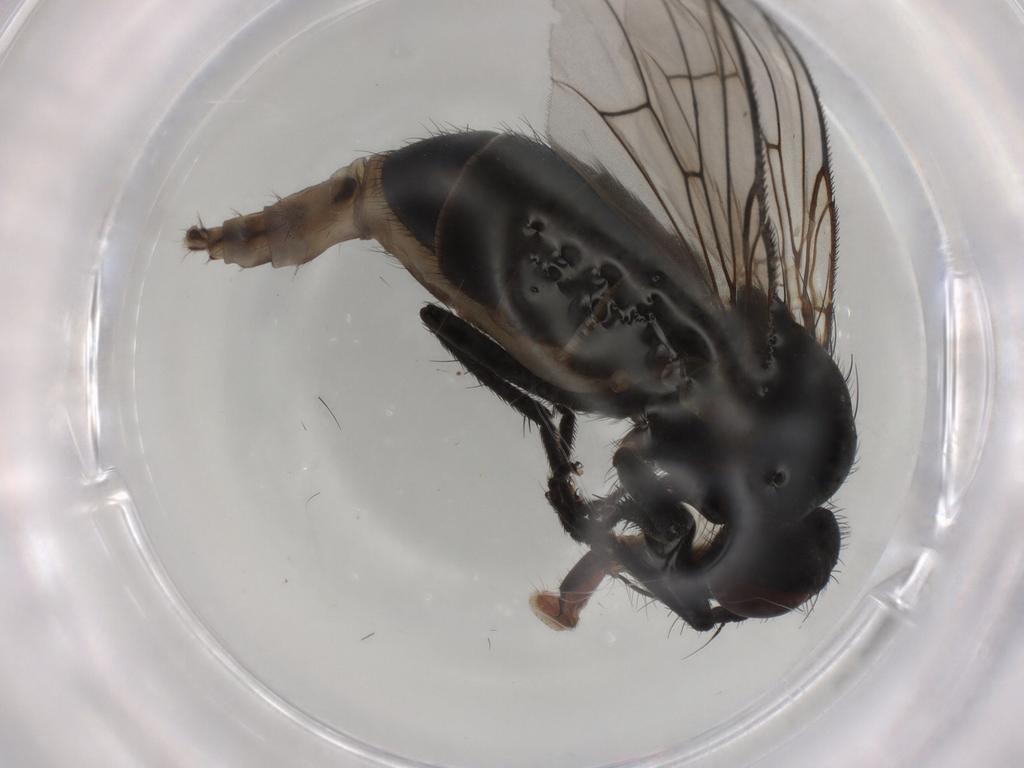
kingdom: Animalia
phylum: Arthropoda
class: Insecta
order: Diptera
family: Muscidae
